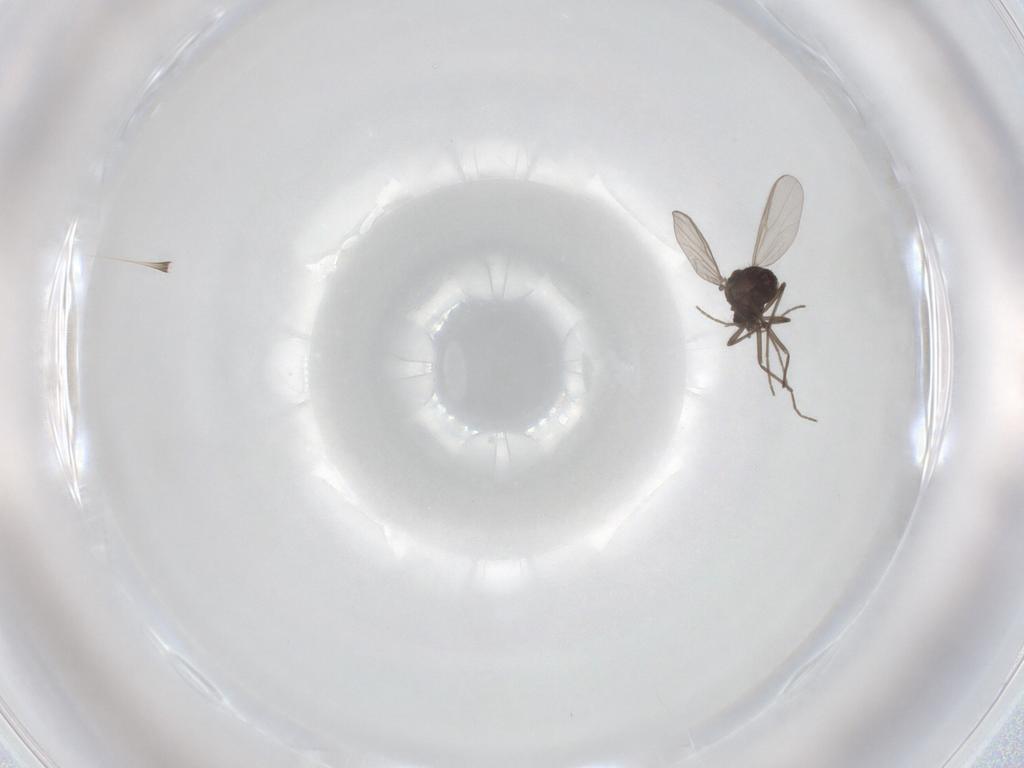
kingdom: Animalia
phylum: Arthropoda
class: Insecta
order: Diptera
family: Chironomidae
